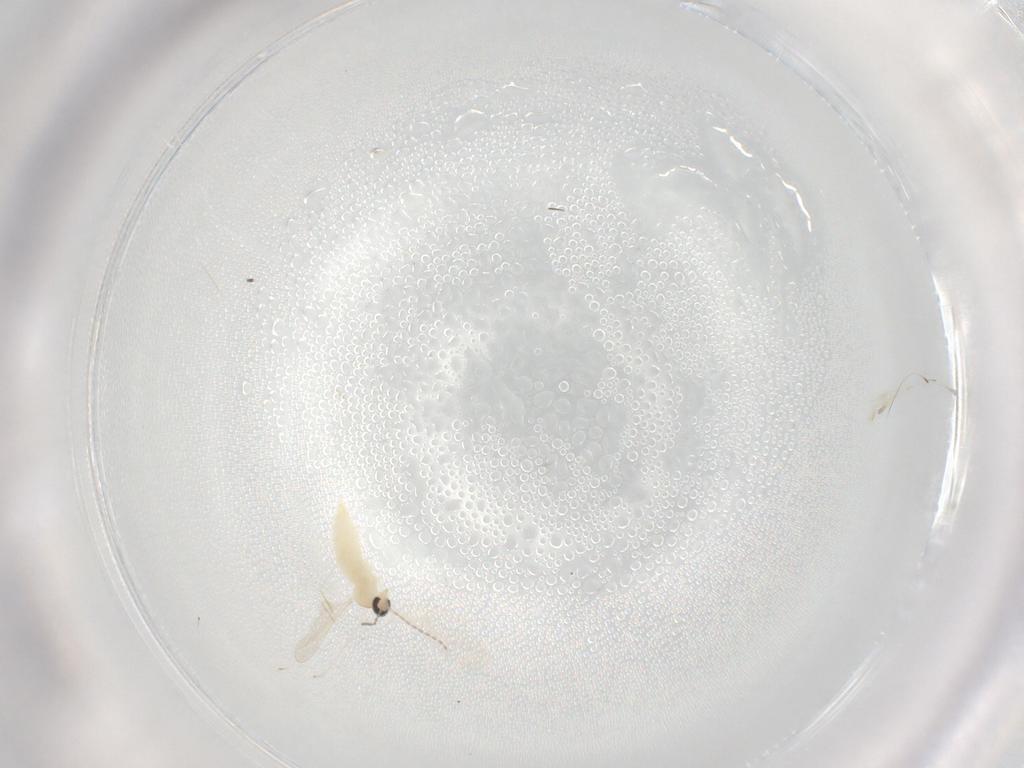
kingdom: Animalia
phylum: Arthropoda
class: Insecta
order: Diptera
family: Cecidomyiidae
